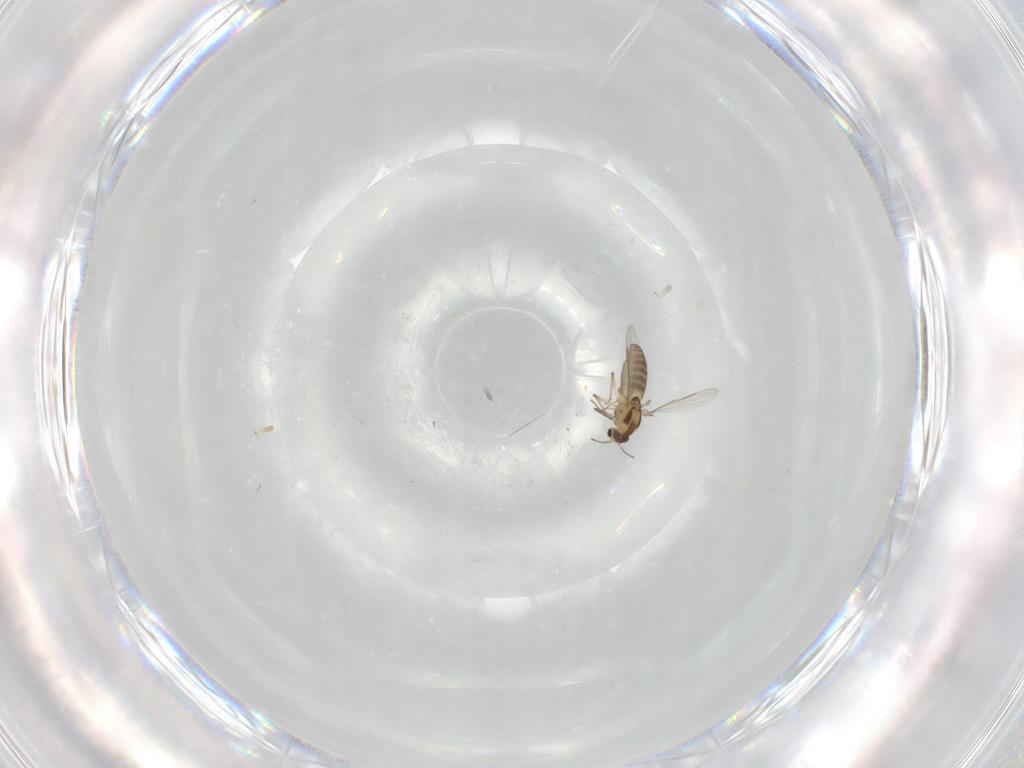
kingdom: Animalia
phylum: Arthropoda
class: Insecta
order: Diptera
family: Chironomidae
